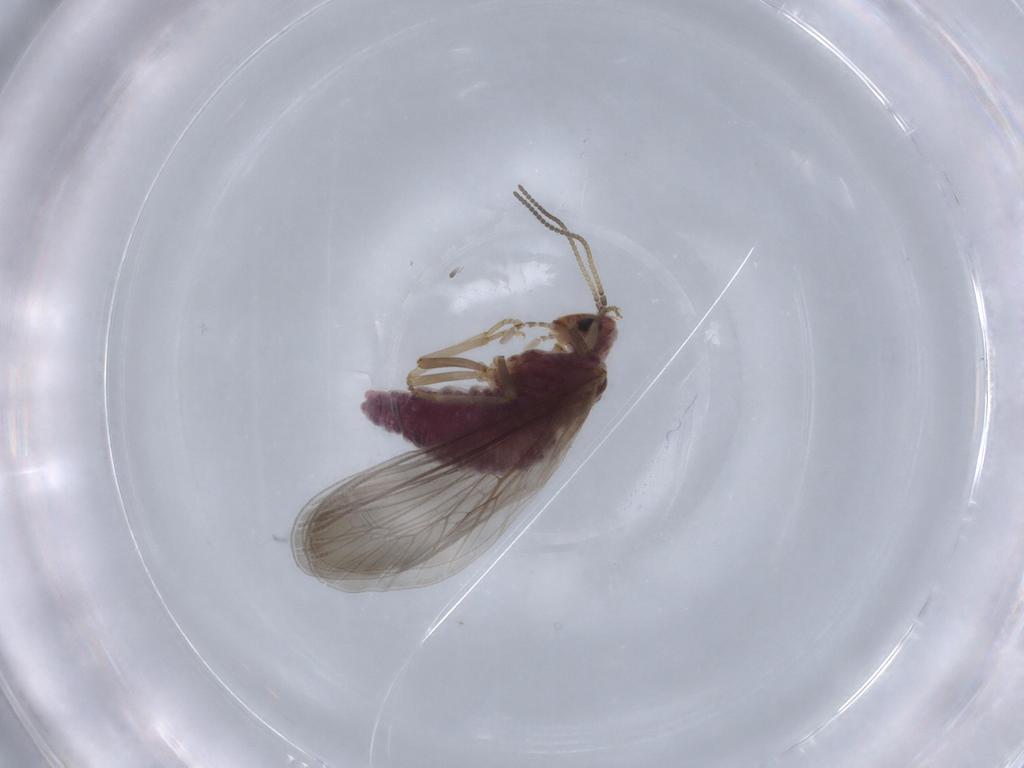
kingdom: Animalia
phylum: Arthropoda
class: Insecta
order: Neuroptera
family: Coniopterygidae
